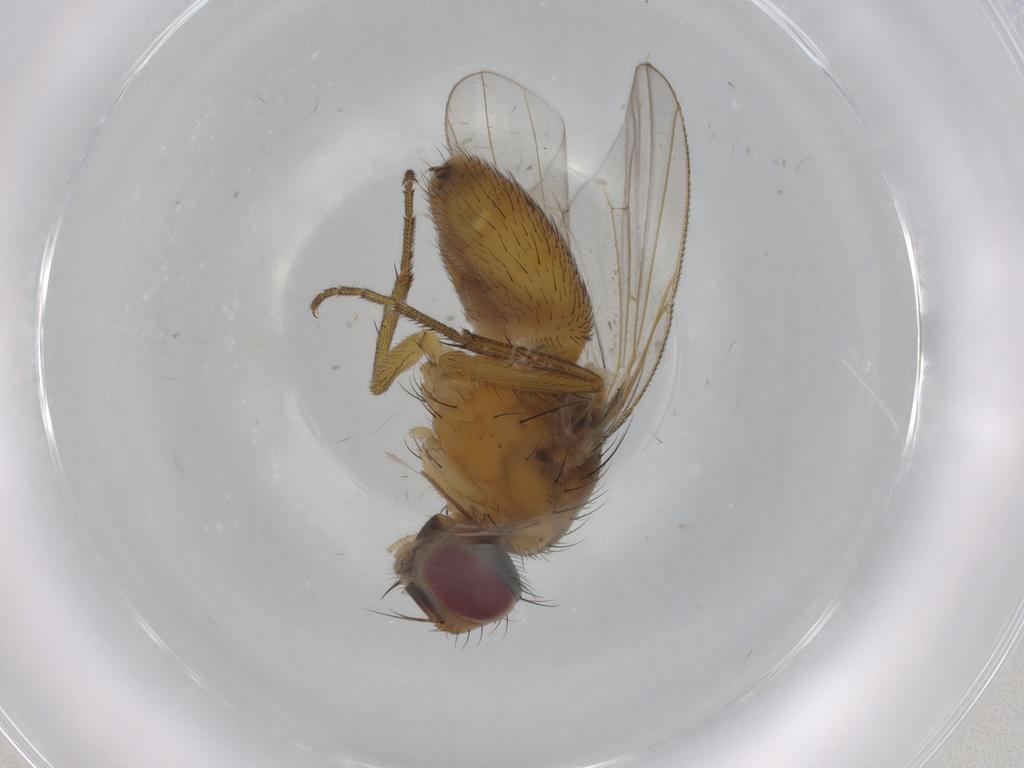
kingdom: Animalia
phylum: Arthropoda
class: Insecta
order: Diptera
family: Muscidae
